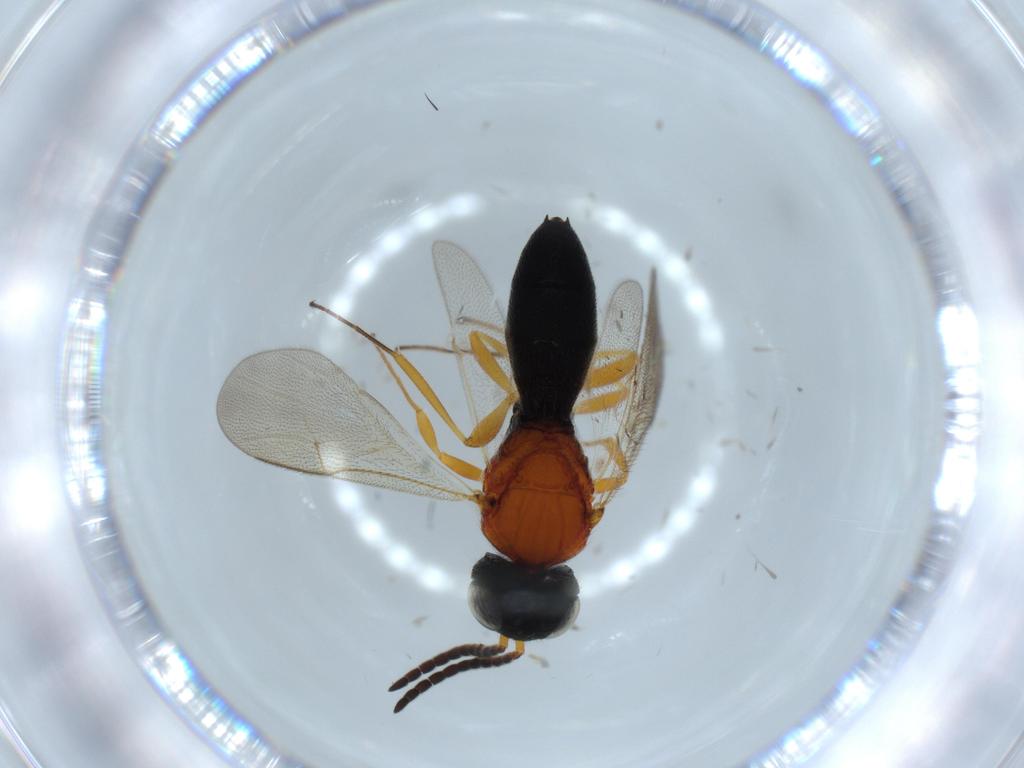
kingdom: Animalia
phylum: Arthropoda
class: Insecta
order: Hymenoptera
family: Scelionidae
